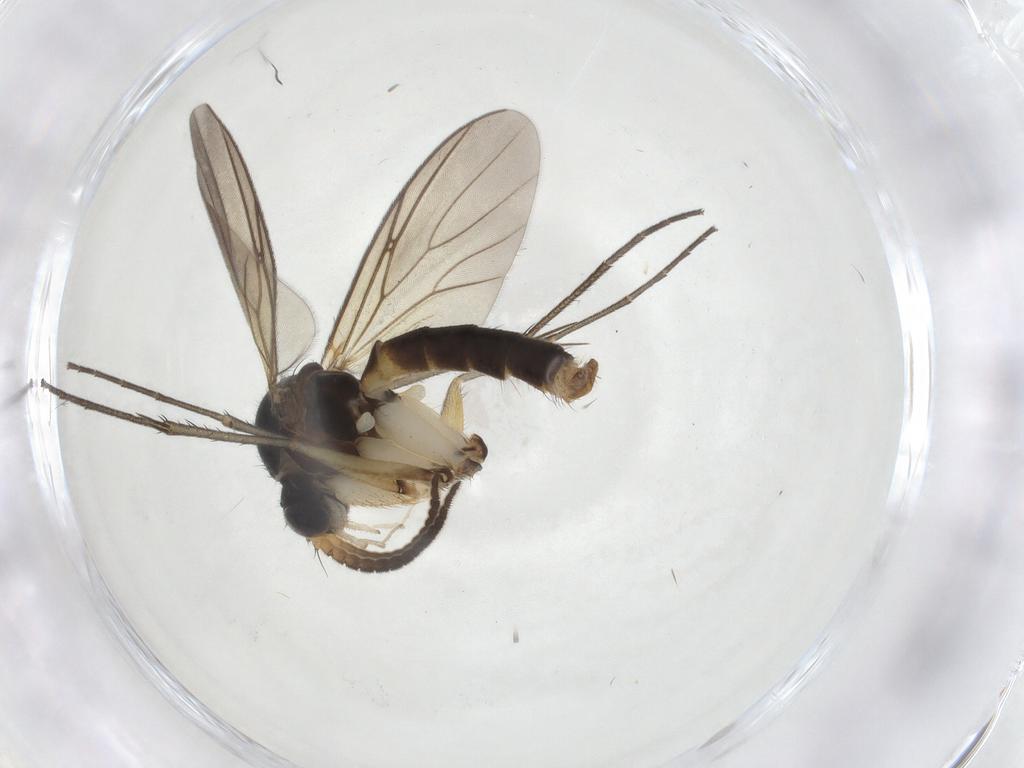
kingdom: Animalia
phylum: Arthropoda
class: Insecta
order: Diptera
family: Mycetophilidae
